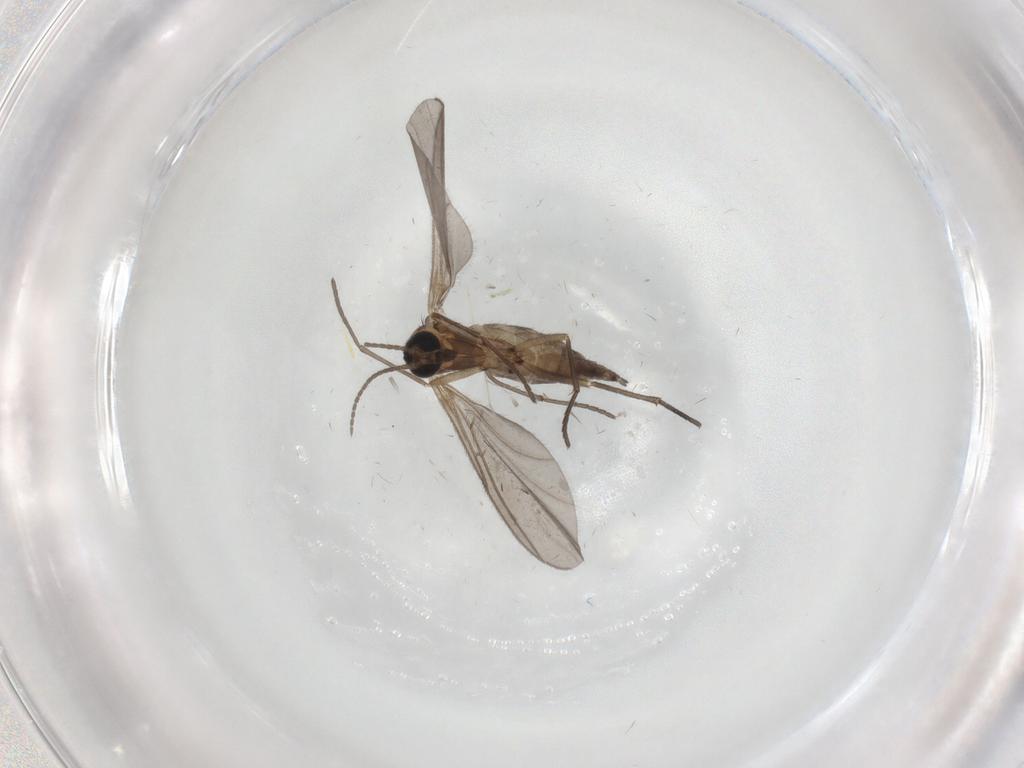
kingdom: Animalia
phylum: Arthropoda
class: Insecta
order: Diptera
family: Sciaridae
